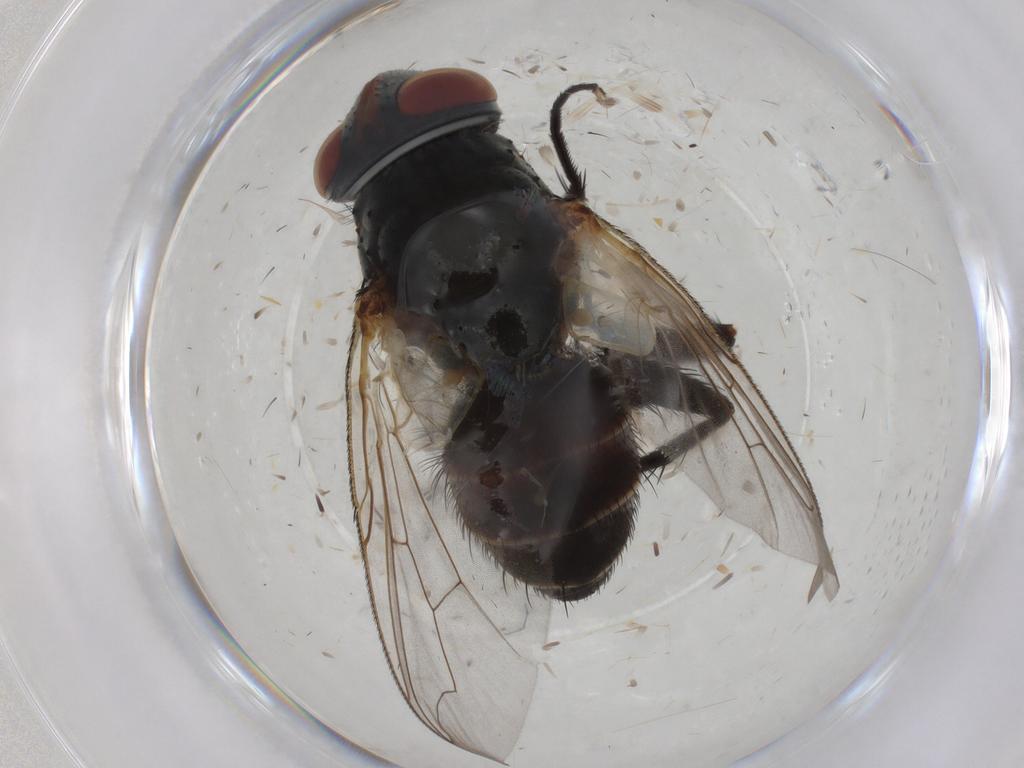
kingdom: Animalia
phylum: Arthropoda
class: Insecta
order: Diptera
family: Sarcophagidae
